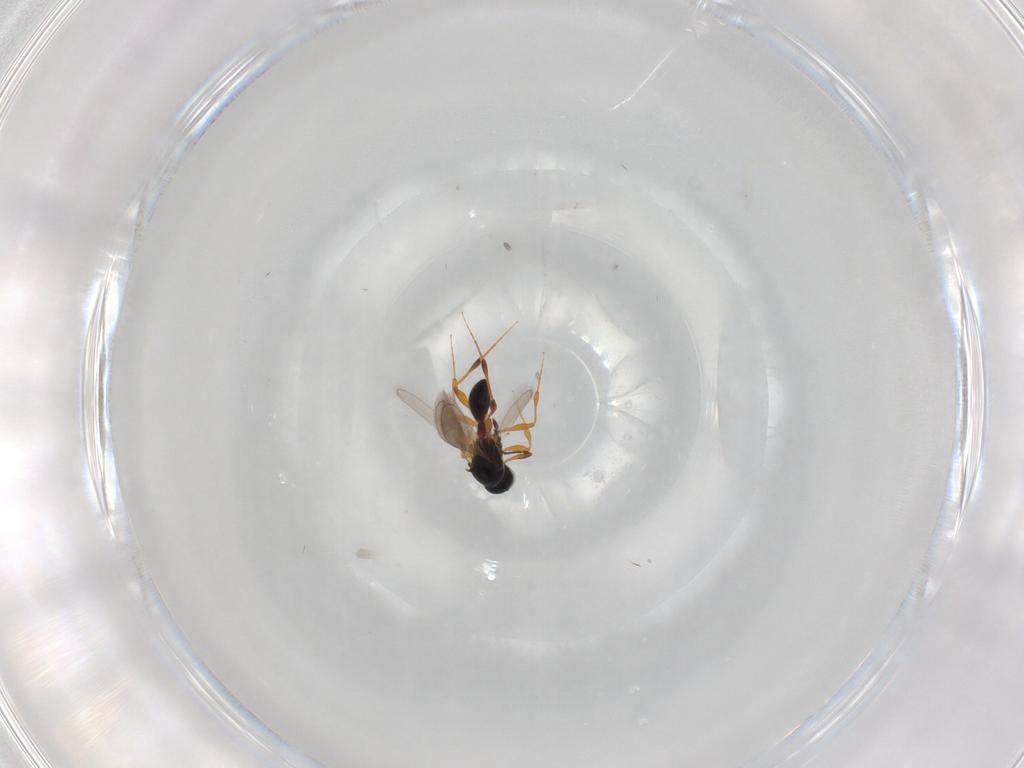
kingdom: Animalia
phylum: Arthropoda
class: Insecta
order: Hymenoptera
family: Platygastridae
